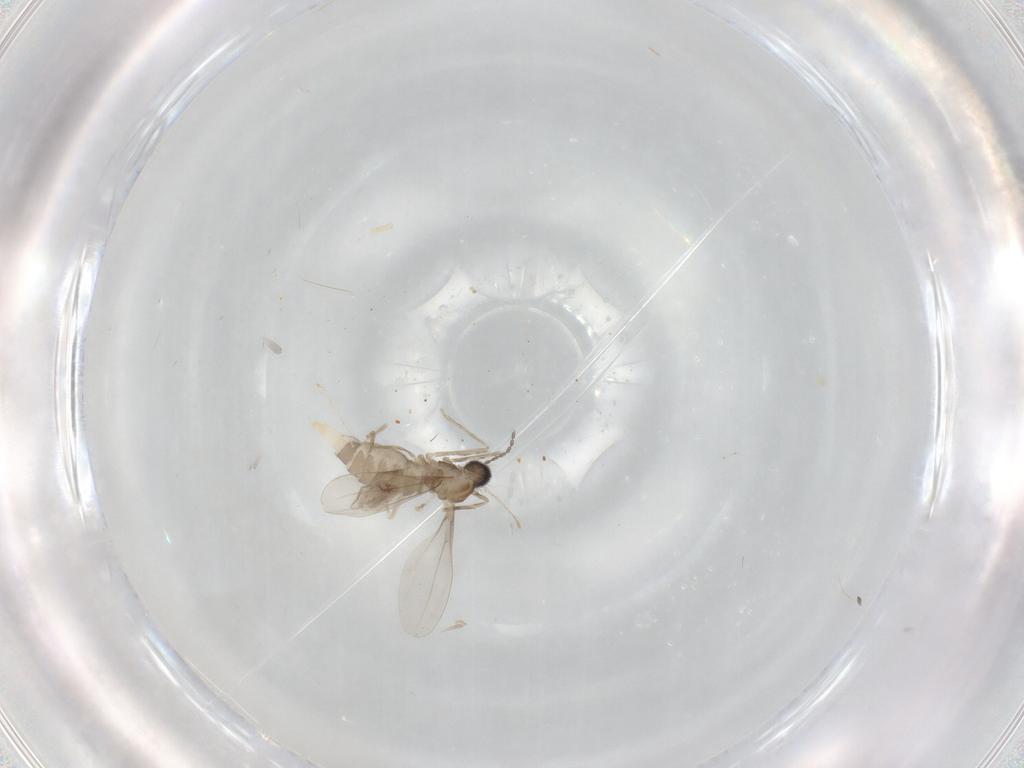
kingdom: Animalia
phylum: Arthropoda
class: Insecta
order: Diptera
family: Cecidomyiidae
